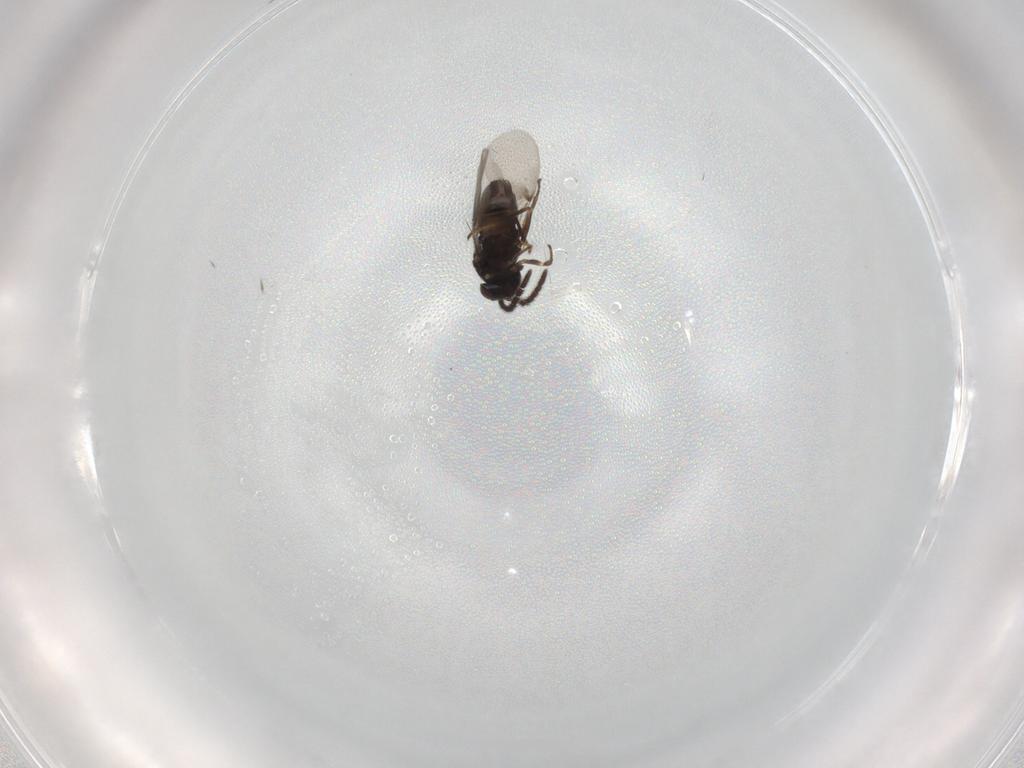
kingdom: Animalia
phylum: Arthropoda
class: Insecta
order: Hymenoptera
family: Encyrtidae
